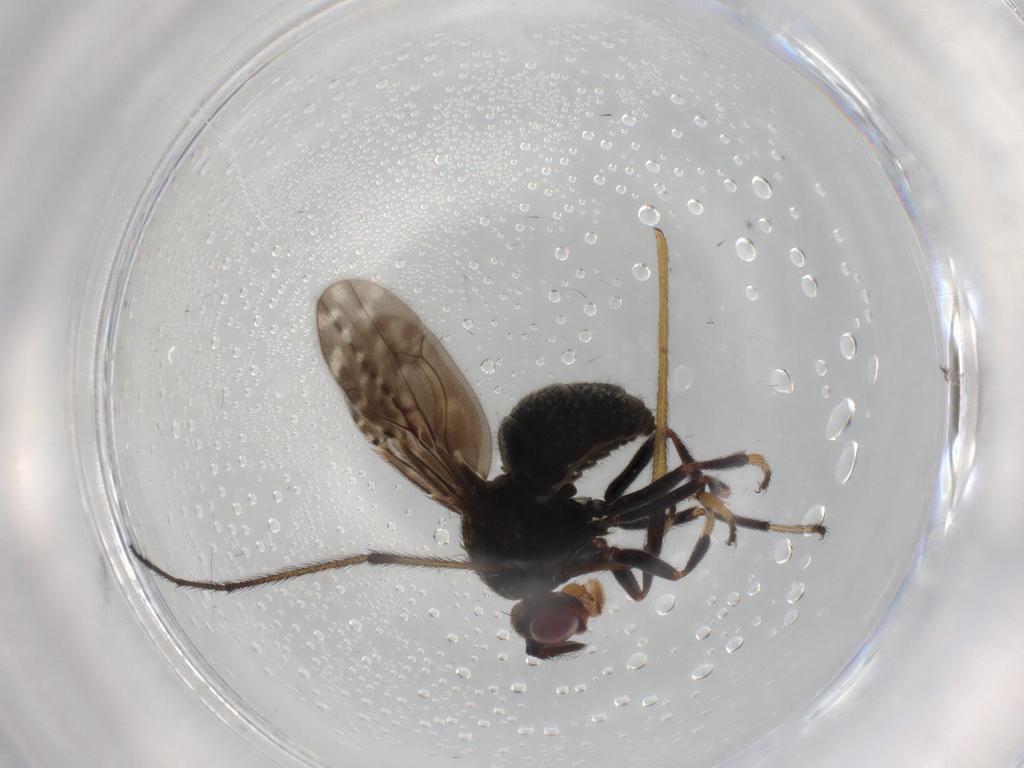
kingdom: Animalia
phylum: Arthropoda
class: Insecta
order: Diptera
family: Ephydridae
